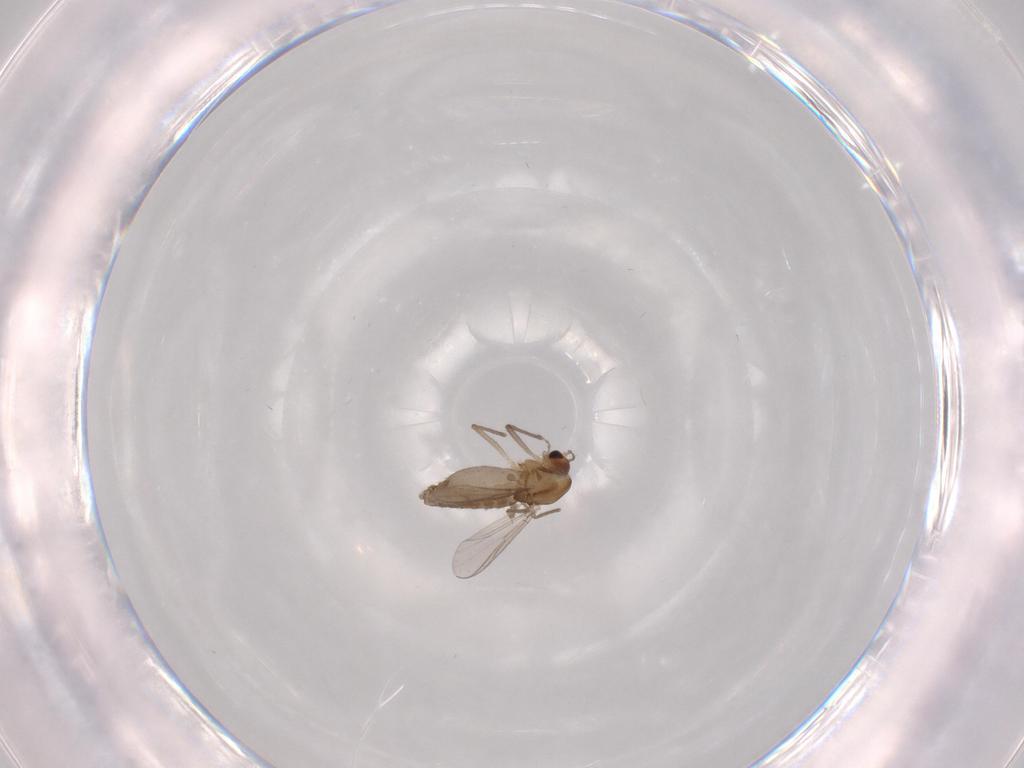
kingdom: Animalia
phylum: Arthropoda
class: Insecta
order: Diptera
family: Chironomidae
